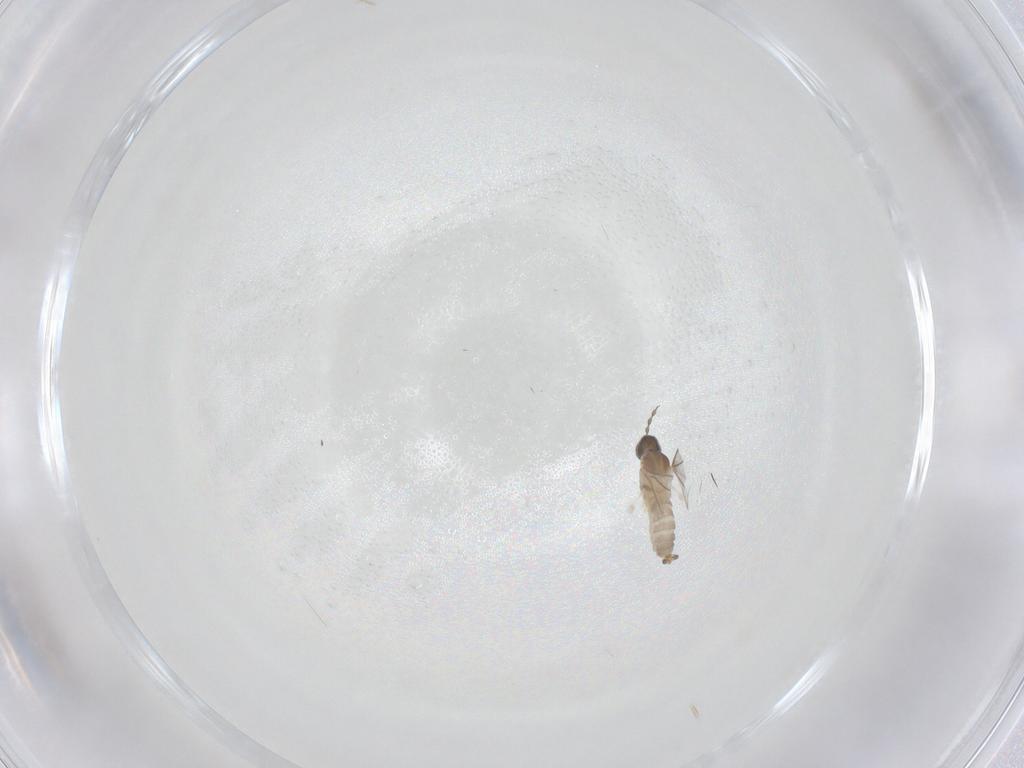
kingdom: Animalia
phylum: Arthropoda
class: Insecta
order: Diptera
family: Cecidomyiidae
